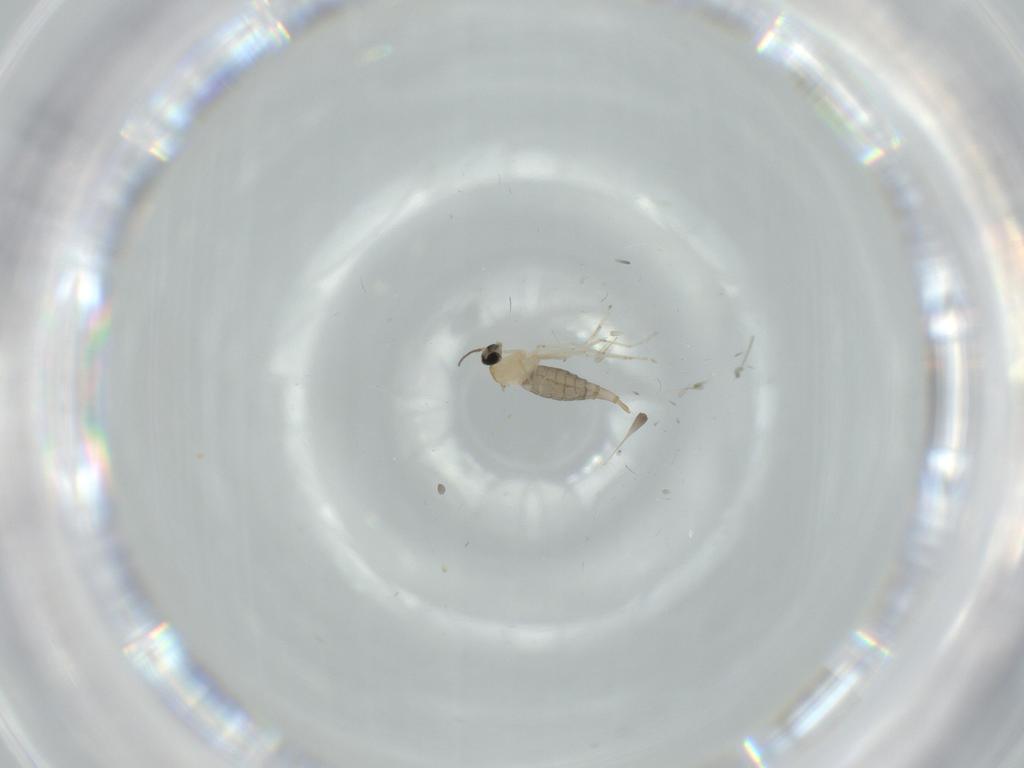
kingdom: Animalia
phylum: Arthropoda
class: Insecta
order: Diptera
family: Cecidomyiidae
